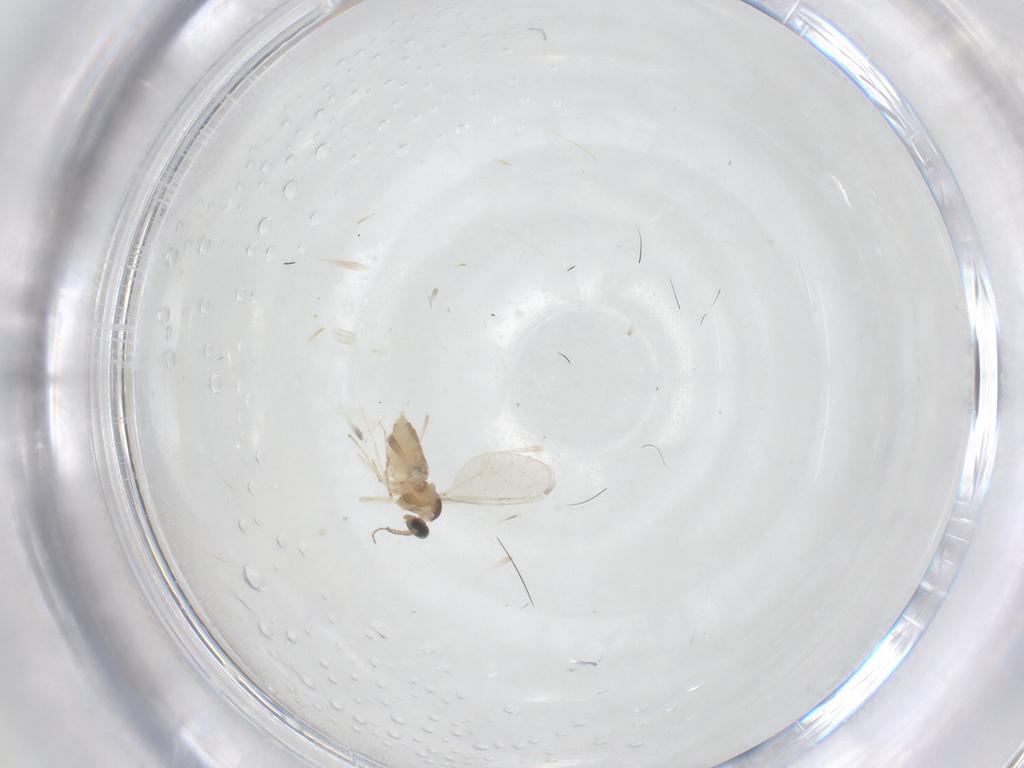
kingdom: Animalia
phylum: Arthropoda
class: Insecta
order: Diptera
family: Cecidomyiidae
